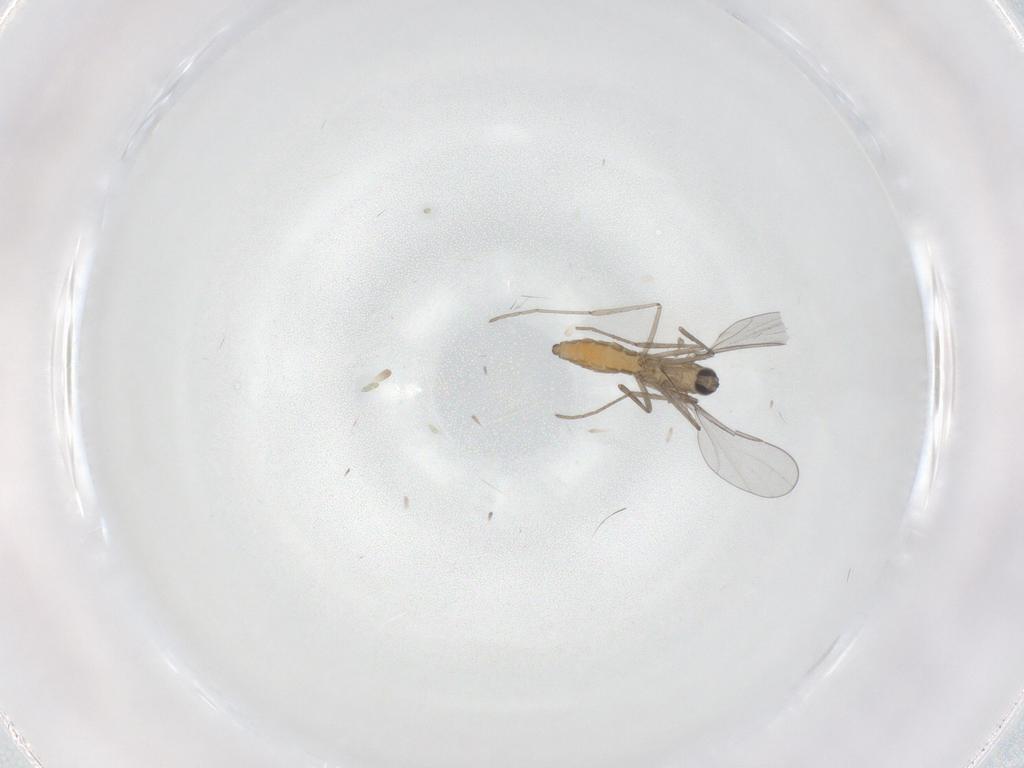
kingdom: Animalia
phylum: Arthropoda
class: Insecta
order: Diptera
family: Cecidomyiidae
